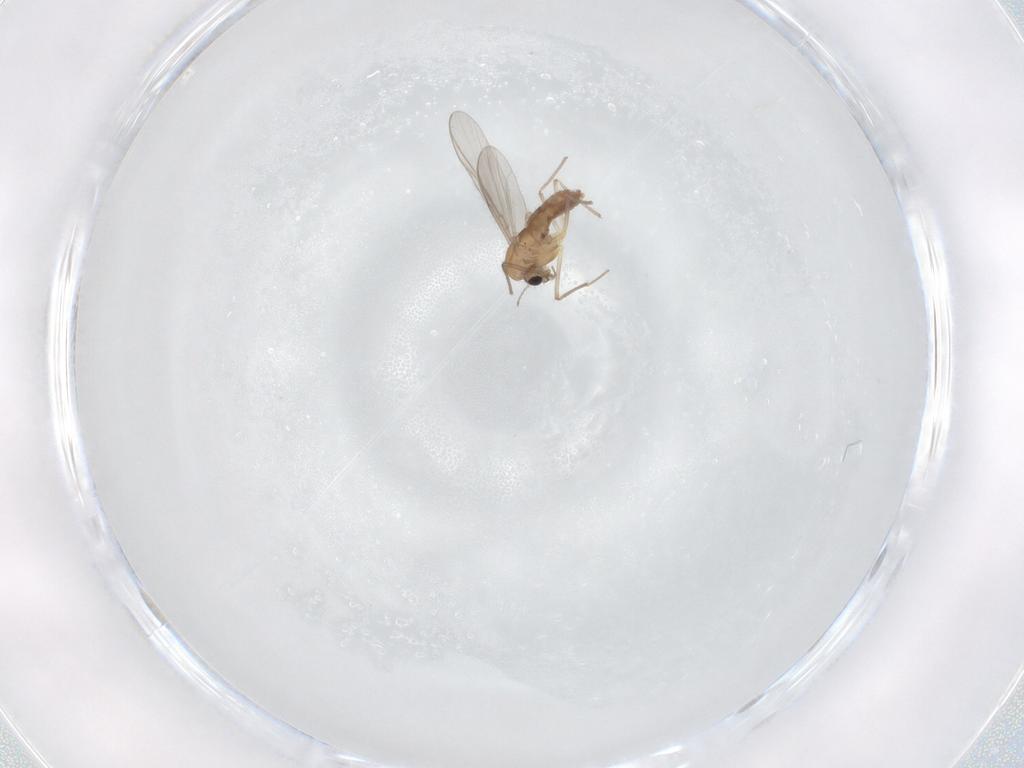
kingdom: Animalia
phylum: Arthropoda
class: Insecta
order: Diptera
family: Chironomidae
